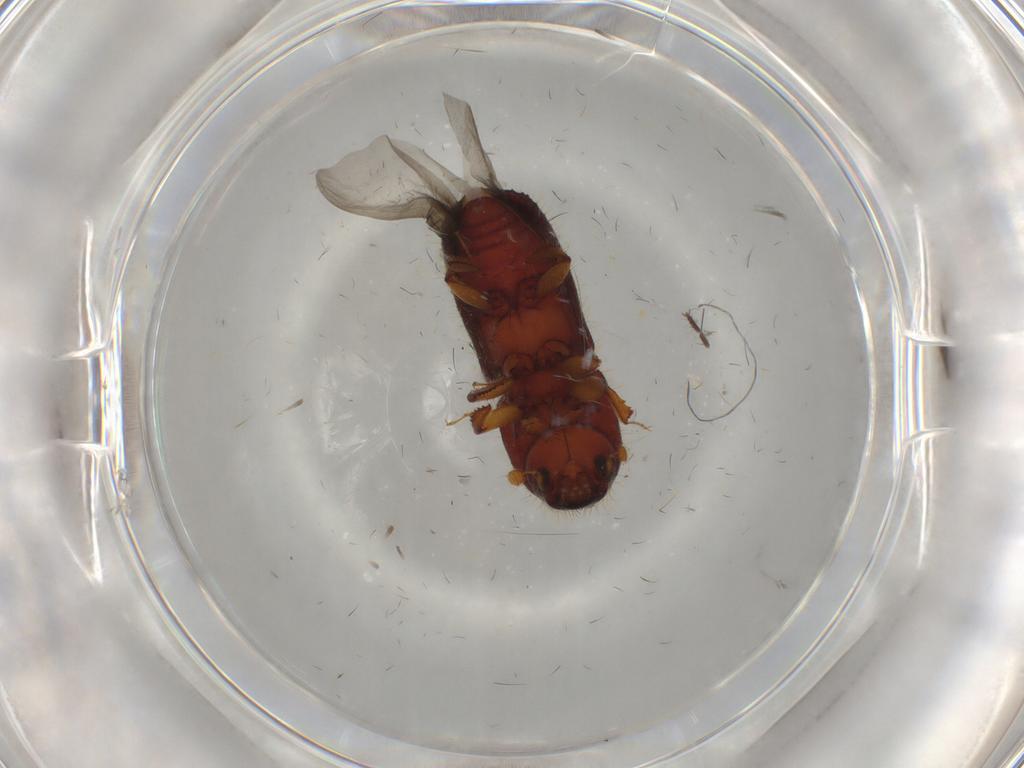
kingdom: Animalia
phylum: Arthropoda
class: Insecta
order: Coleoptera
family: Curculionidae
